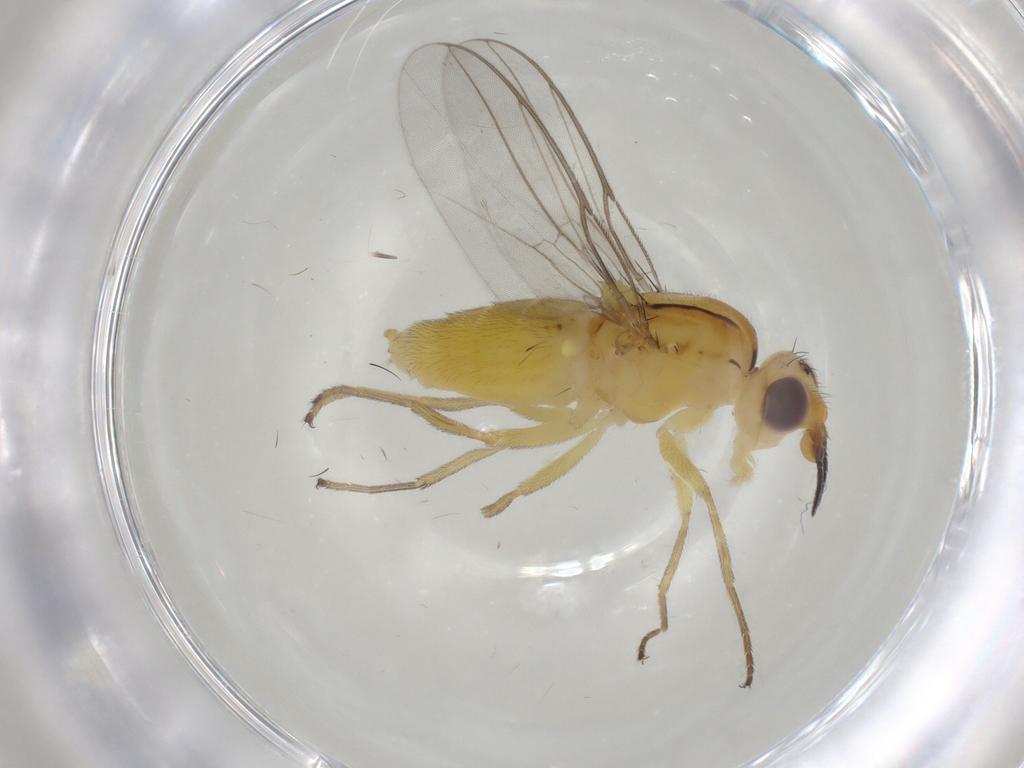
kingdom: Animalia
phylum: Arthropoda
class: Insecta
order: Diptera
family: Chloropidae
